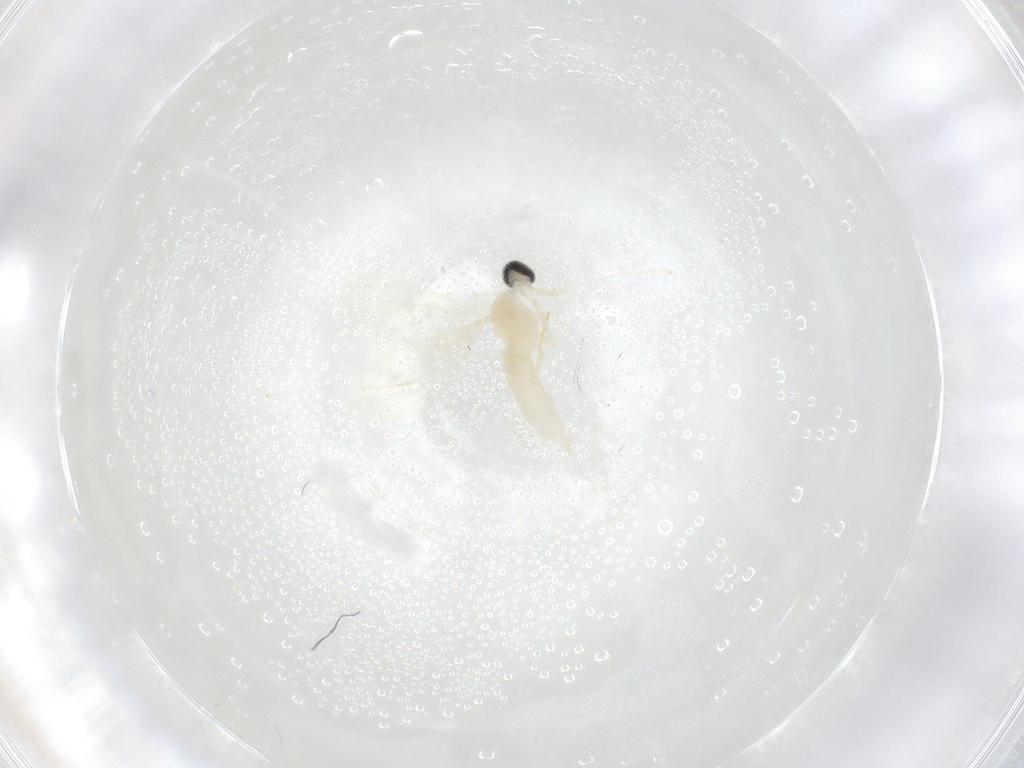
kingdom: Animalia
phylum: Arthropoda
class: Insecta
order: Diptera
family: Cecidomyiidae
